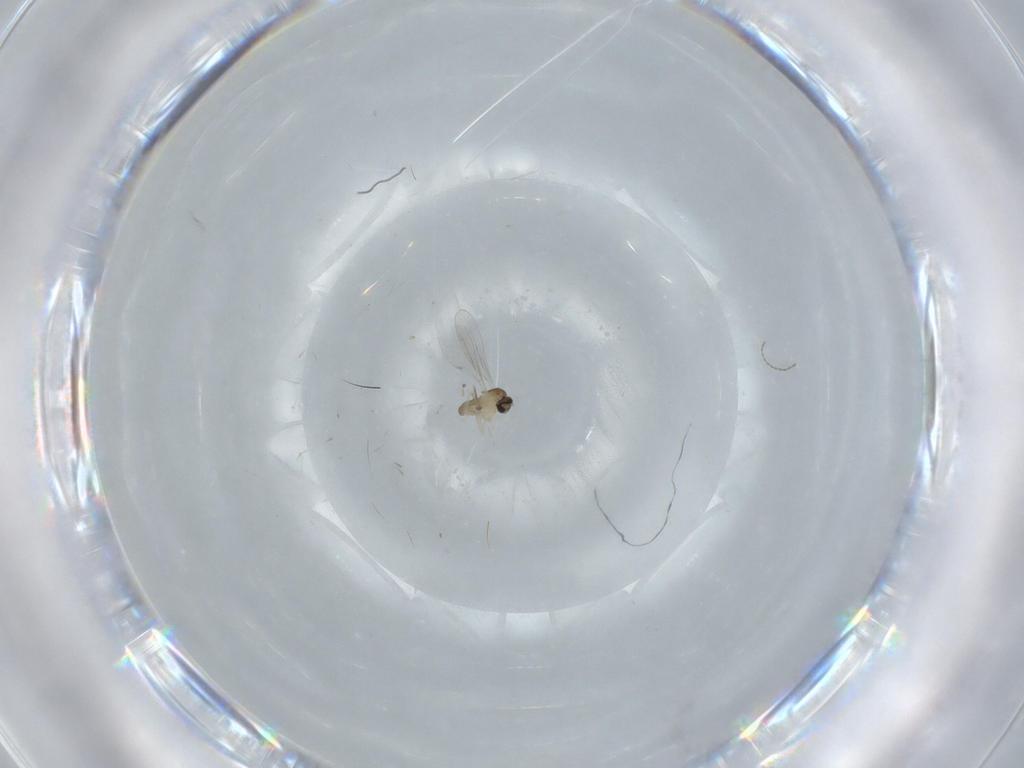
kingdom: Animalia
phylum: Arthropoda
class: Insecta
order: Diptera
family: Cecidomyiidae
